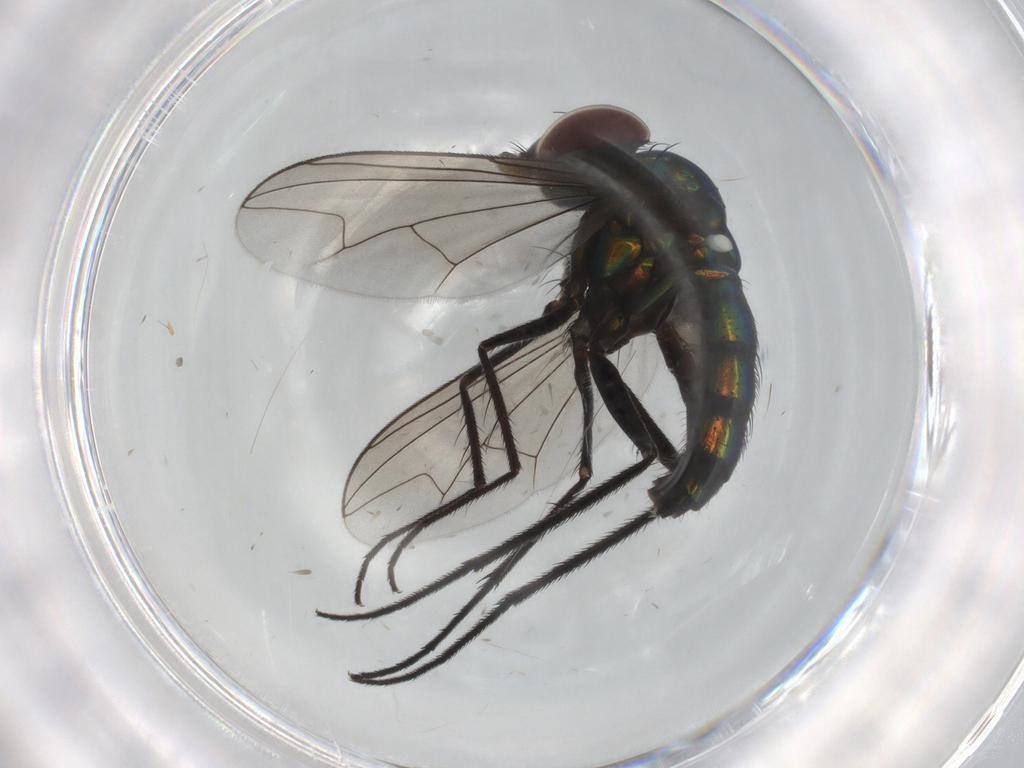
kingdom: Animalia
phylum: Arthropoda
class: Insecta
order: Diptera
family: Dolichopodidae
